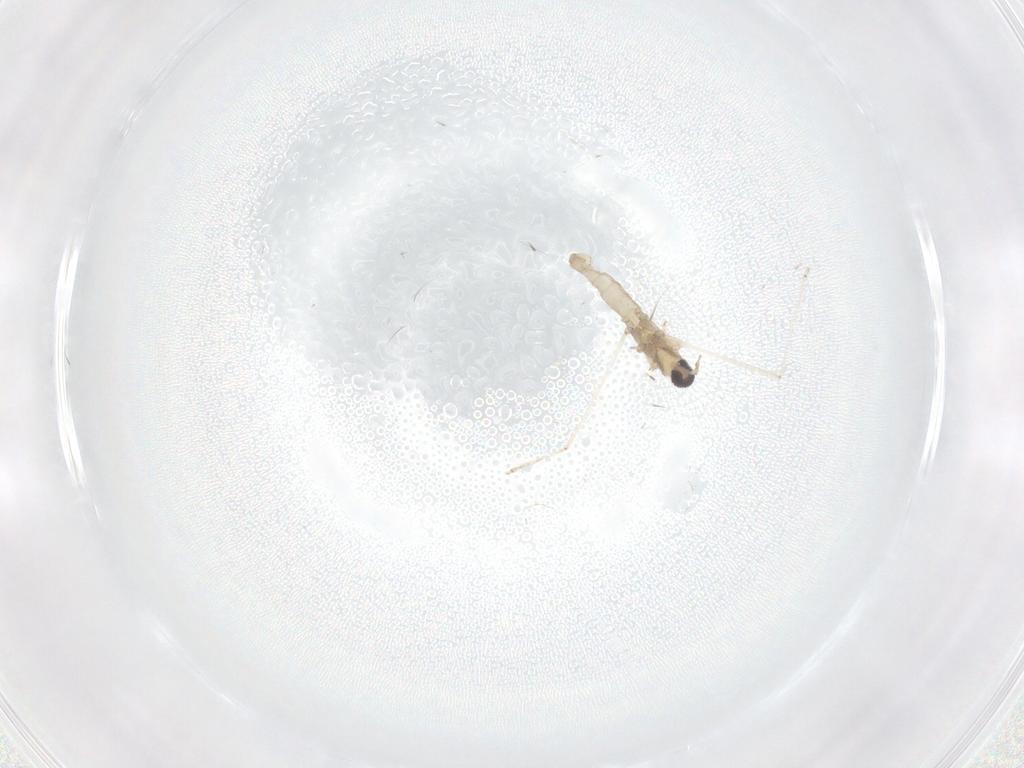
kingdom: Animalia
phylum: Arthropoda
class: Insecta
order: Diptera
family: Cecidomyiidae
